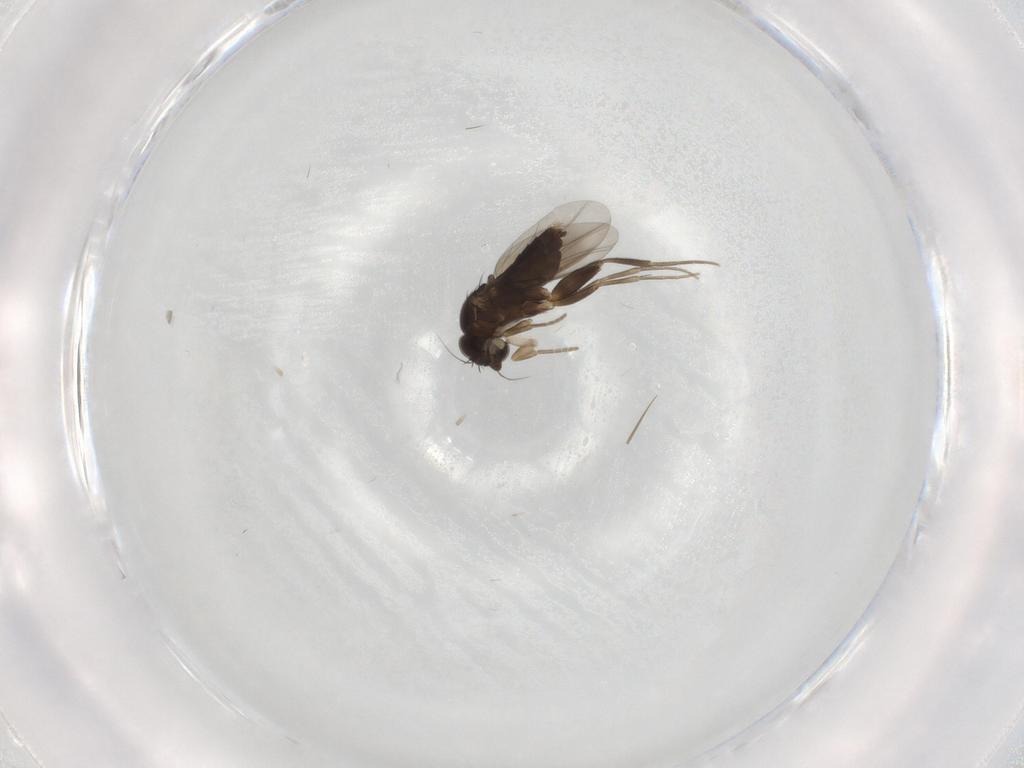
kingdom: Animalia
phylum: Arthropoda
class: Insecta
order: Diptera
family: Phoridae
